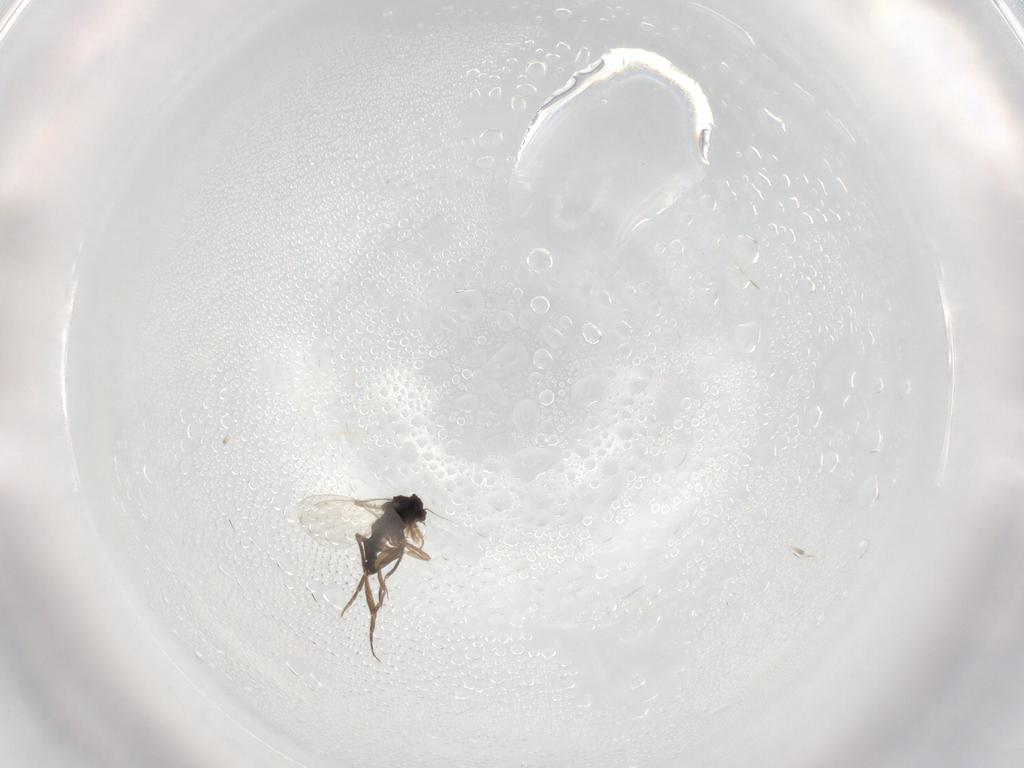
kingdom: Animalia
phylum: Arthropoda
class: Insecta
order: Diptera
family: Phoridae
